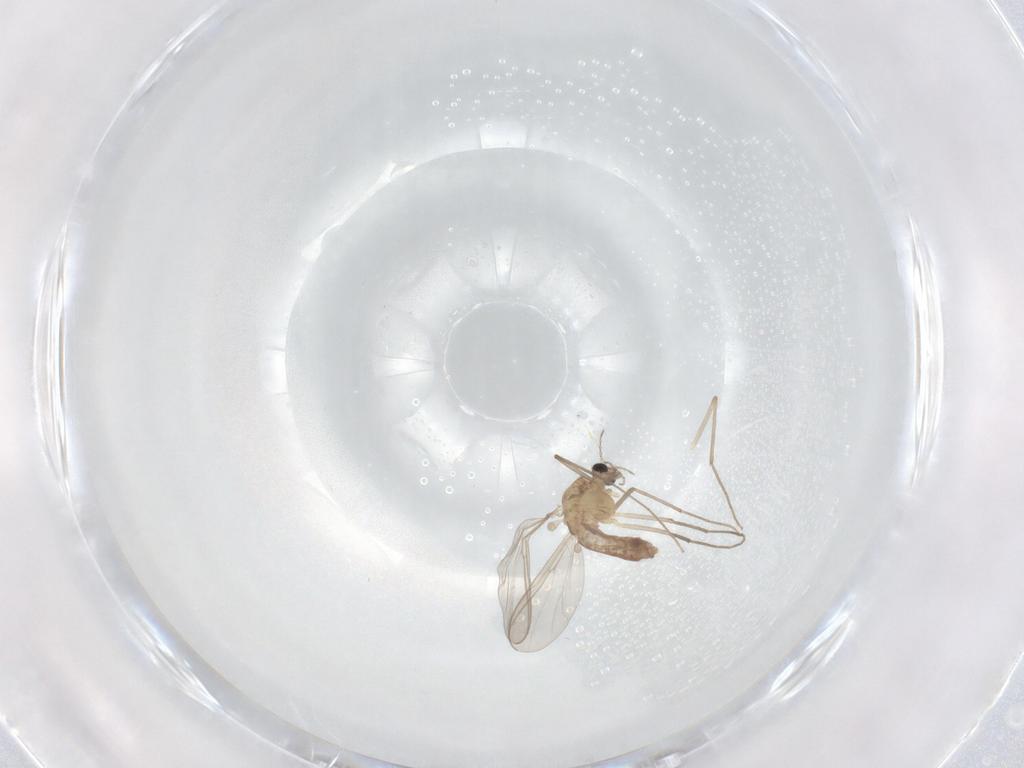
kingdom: Animalia
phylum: Arthropoda
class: Insecta
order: Diptera
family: Chironomidae
